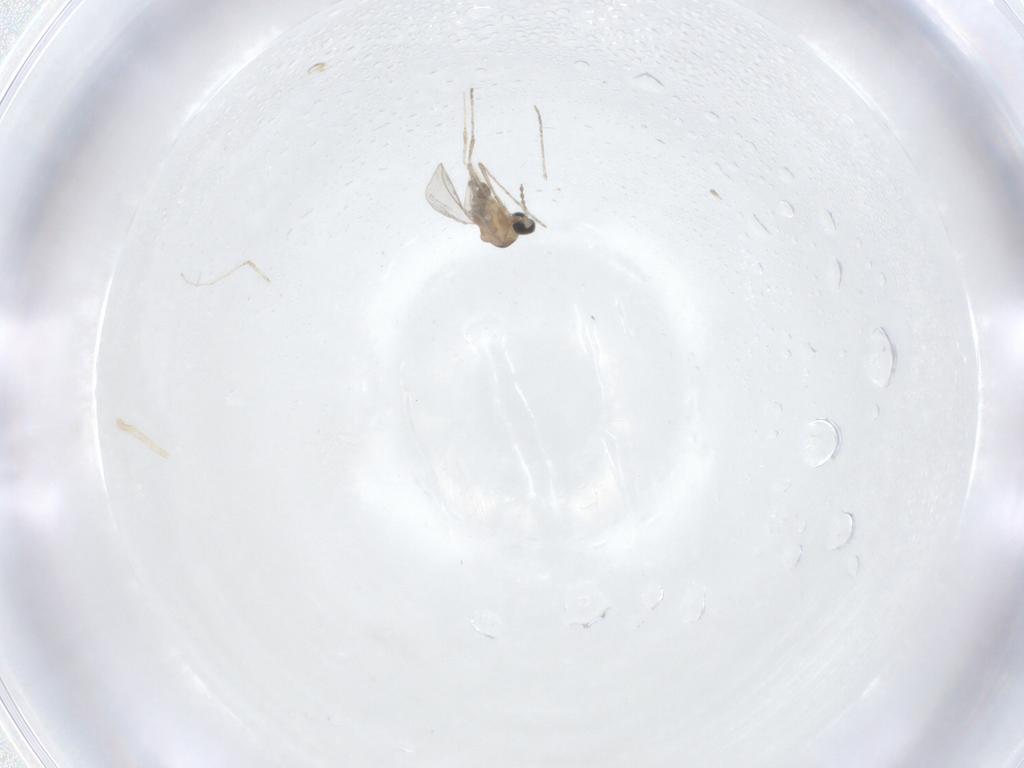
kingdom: Animalia
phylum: Arthropoda
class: Insecta
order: Diptera
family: Cecidomyiidae
